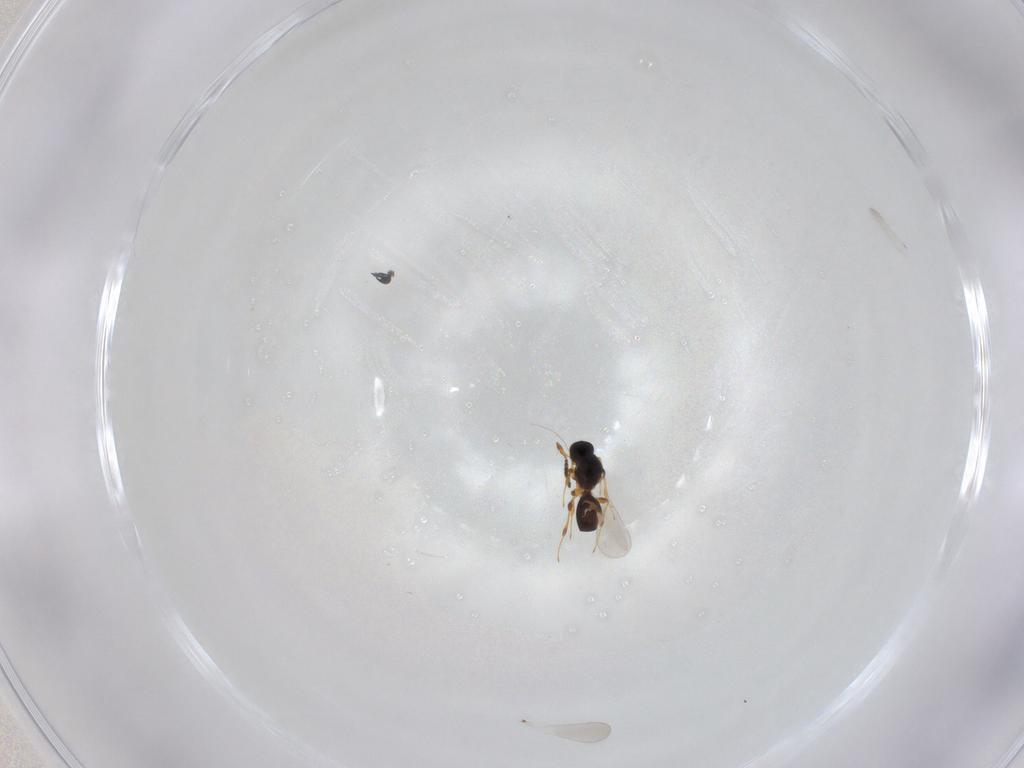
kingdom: Animalia
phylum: Arthropoda
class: Insecta
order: Hymenoptera
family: Platygastridae
